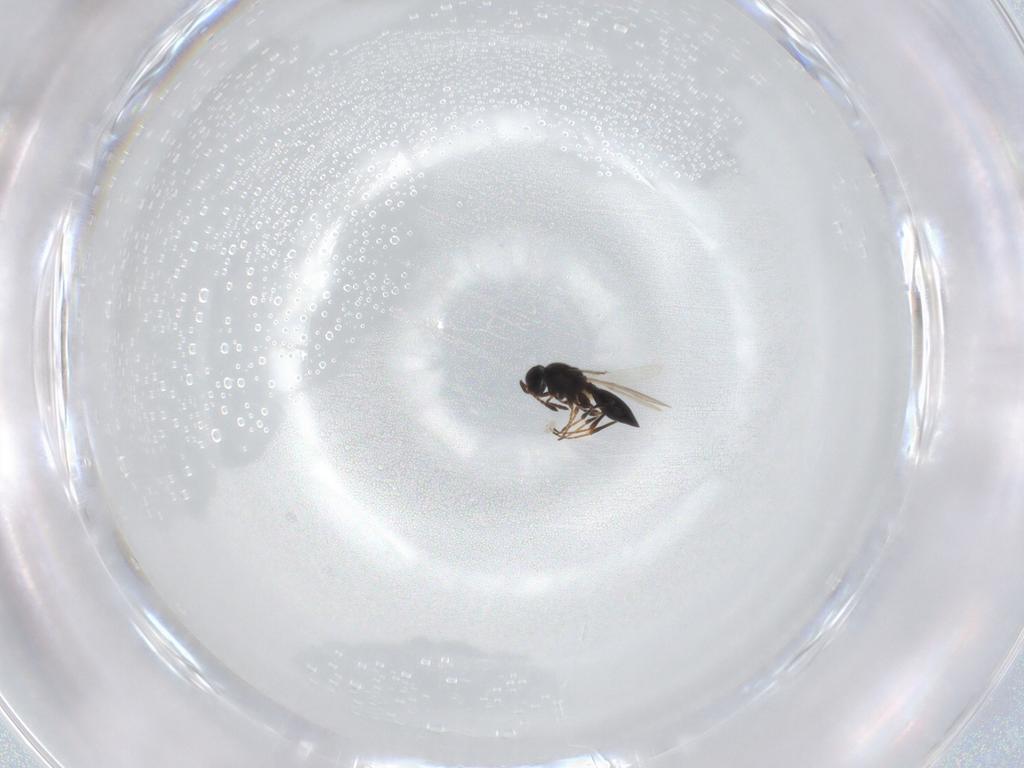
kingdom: Animalia
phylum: Arthropoda
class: Insecta
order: Hymenoptera
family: Platygastridae
